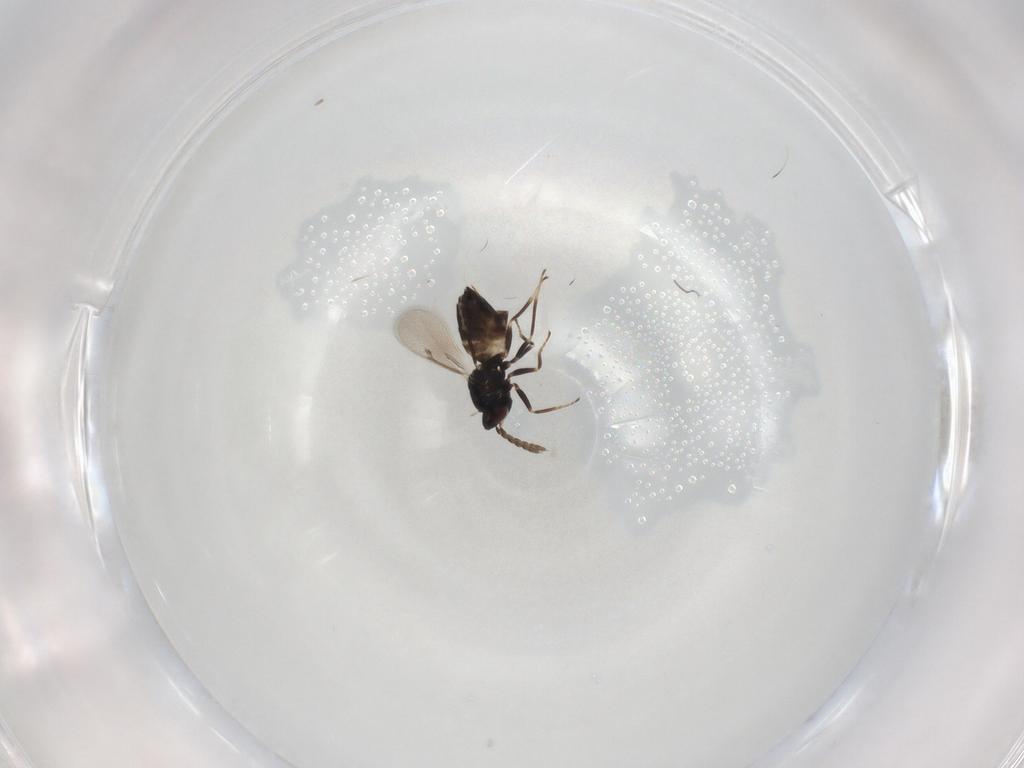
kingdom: Animalia
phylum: Arthropoda
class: Insecta
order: Hymenoptera
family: Eulophidae
